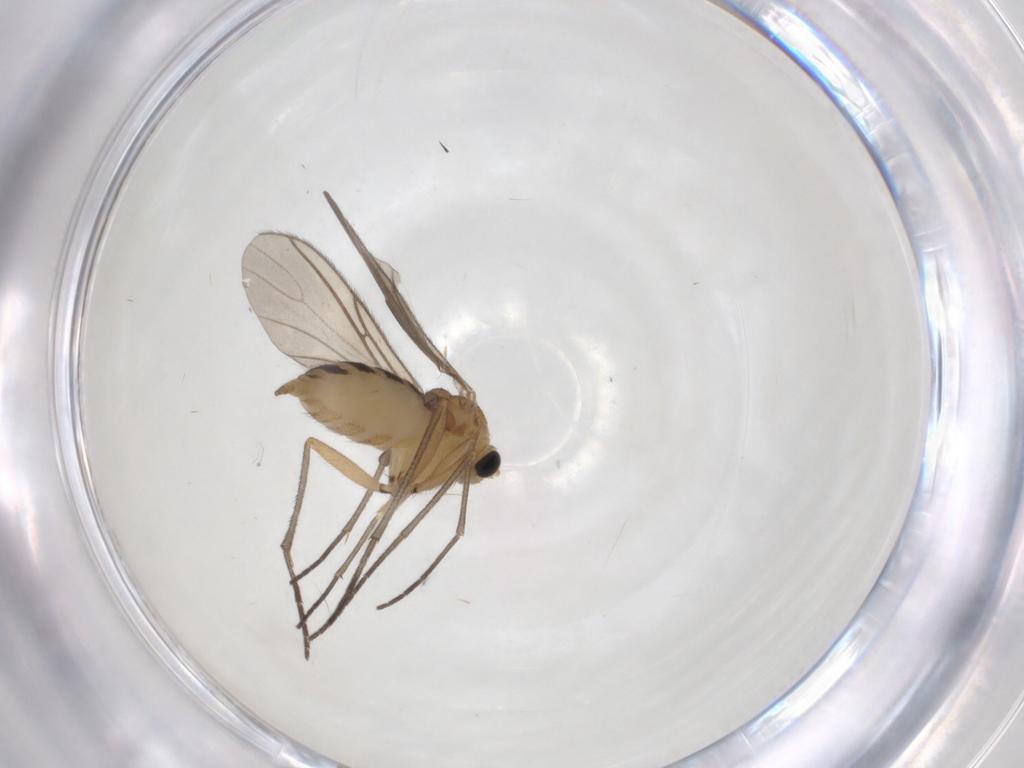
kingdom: Animalia
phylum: Arthropoda
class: Insecta
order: Diptera
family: Sciaridae
